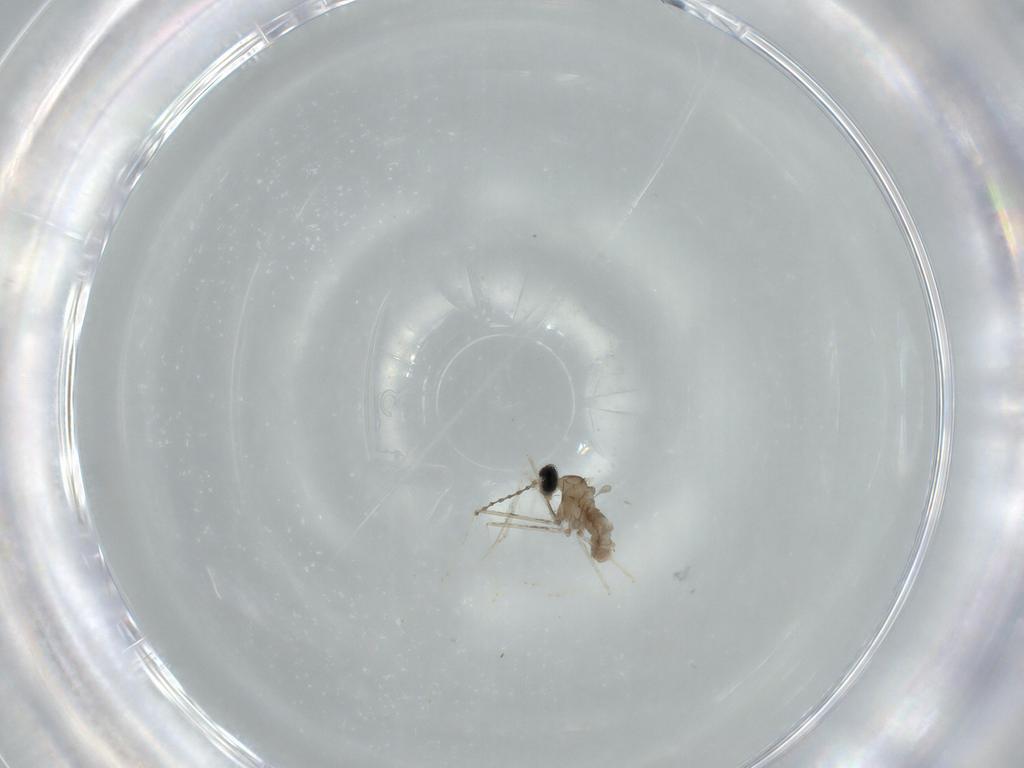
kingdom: Animalia
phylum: Arthropoda
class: Insecta
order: Diptera
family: Cecidomyiidae
